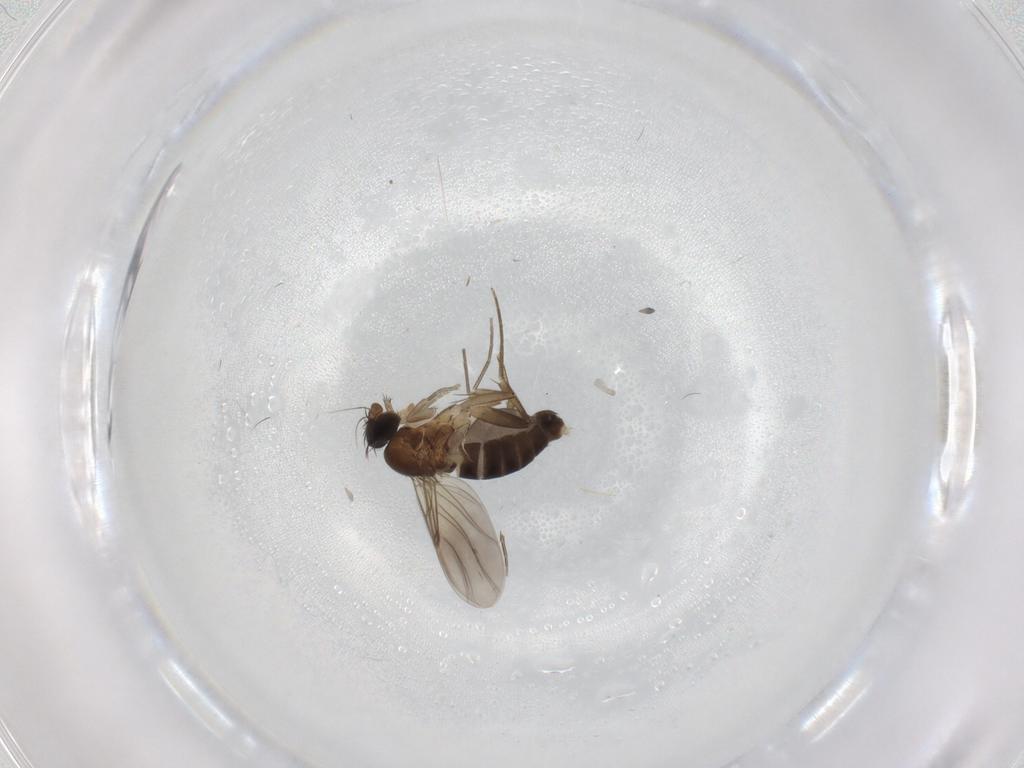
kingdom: Animalia
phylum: Arthropoda
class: Insecta
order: Diptera
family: Phoridae
